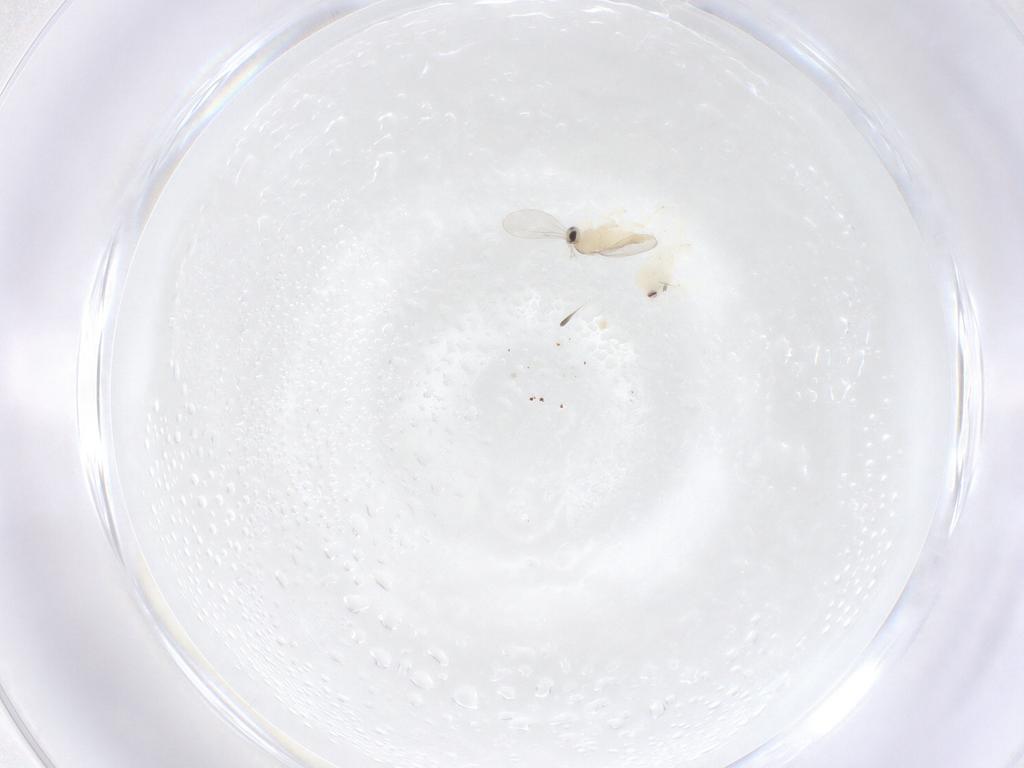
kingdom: Animalia
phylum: Arthropoda
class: Insecta
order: Diptera
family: Cecidomyiidae
